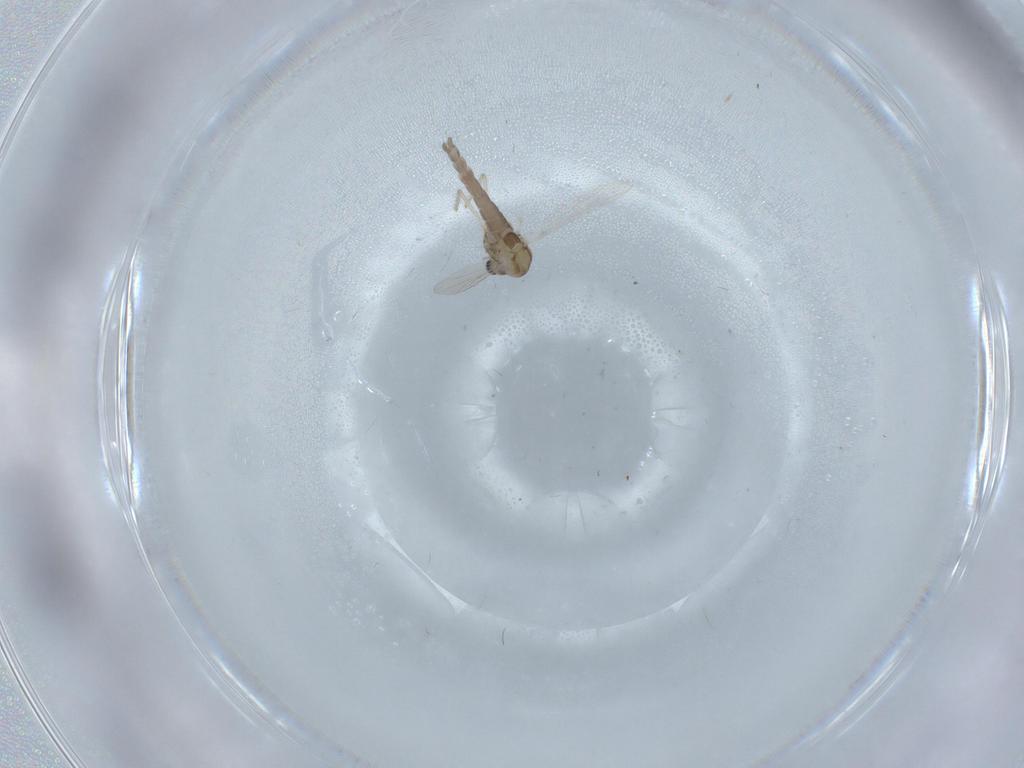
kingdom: Animalia
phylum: Arthropoda
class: Insecta
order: Diptera
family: Chironomidae
